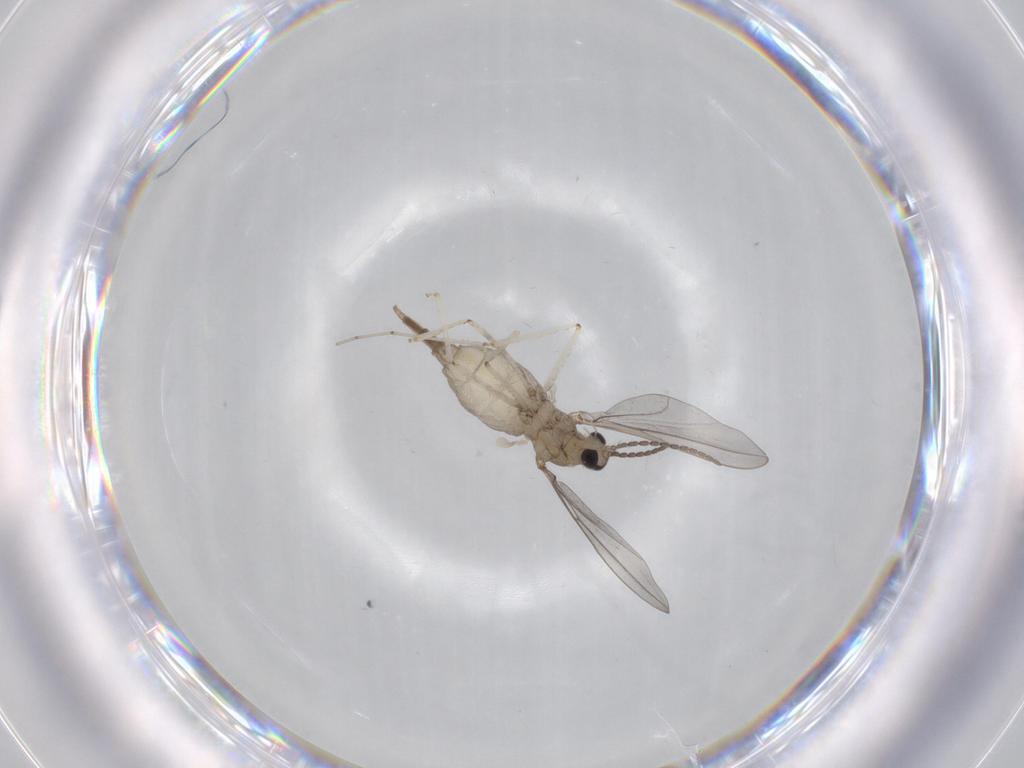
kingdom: Animalia
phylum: Arthropoda
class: Insecta
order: Diptera
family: Cecidomyiidae
